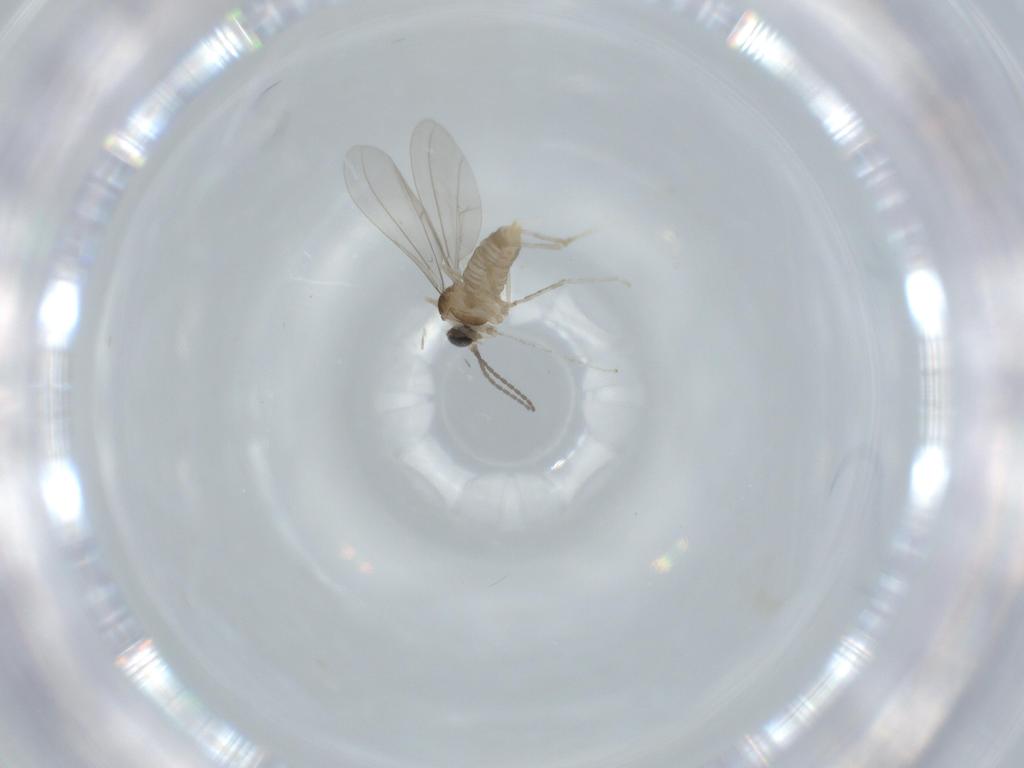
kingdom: Animalia
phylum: Arthropoda
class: Insecta
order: Diptera
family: Cecidomyiidae
